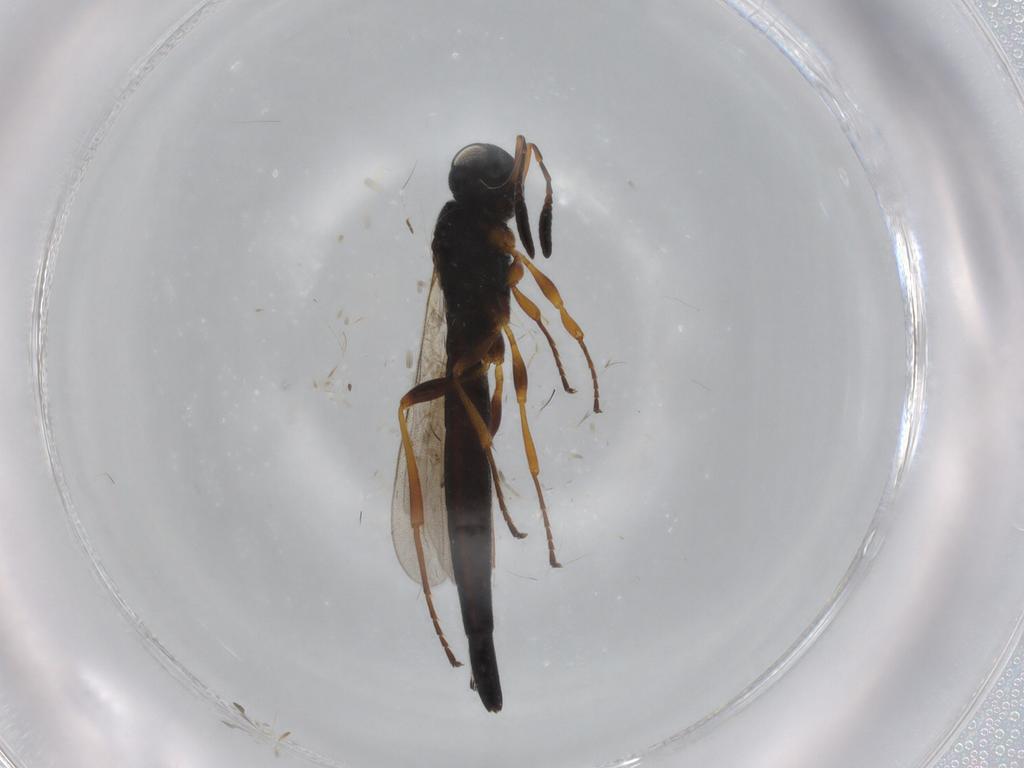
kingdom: Animalia
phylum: Arthropoda
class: Insecta
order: Hymenoptera
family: Scelionidae
